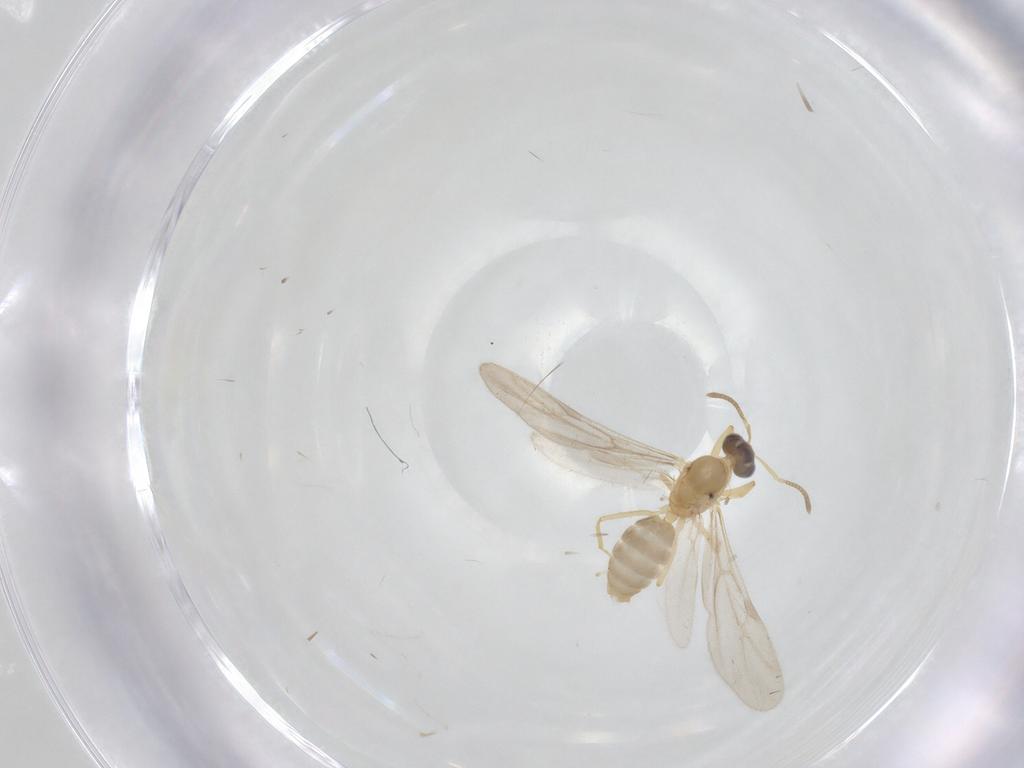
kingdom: Animalia
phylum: Arthropoda
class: Insecta
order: Hymenoptera
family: Formicidae
